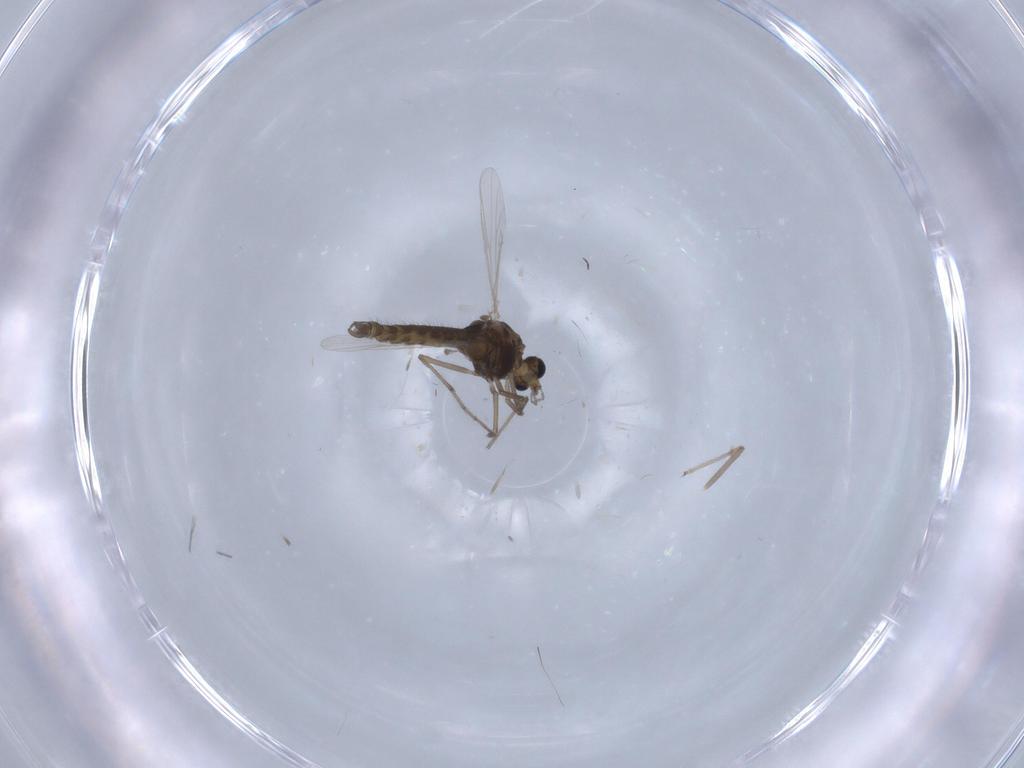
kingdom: Animalia
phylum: Arthropoda
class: Insecta
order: Diptera
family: Chironomidae
